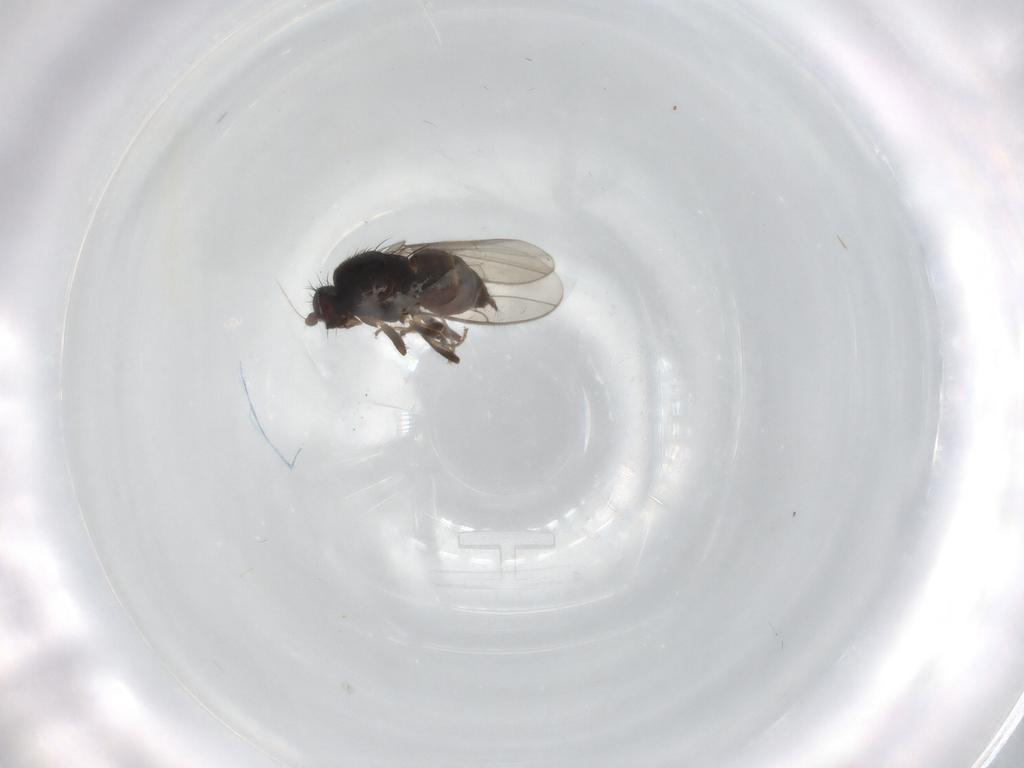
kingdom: Animalia
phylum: Arthropoda
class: Insecta
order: Diptera
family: Sphaeroceridae
